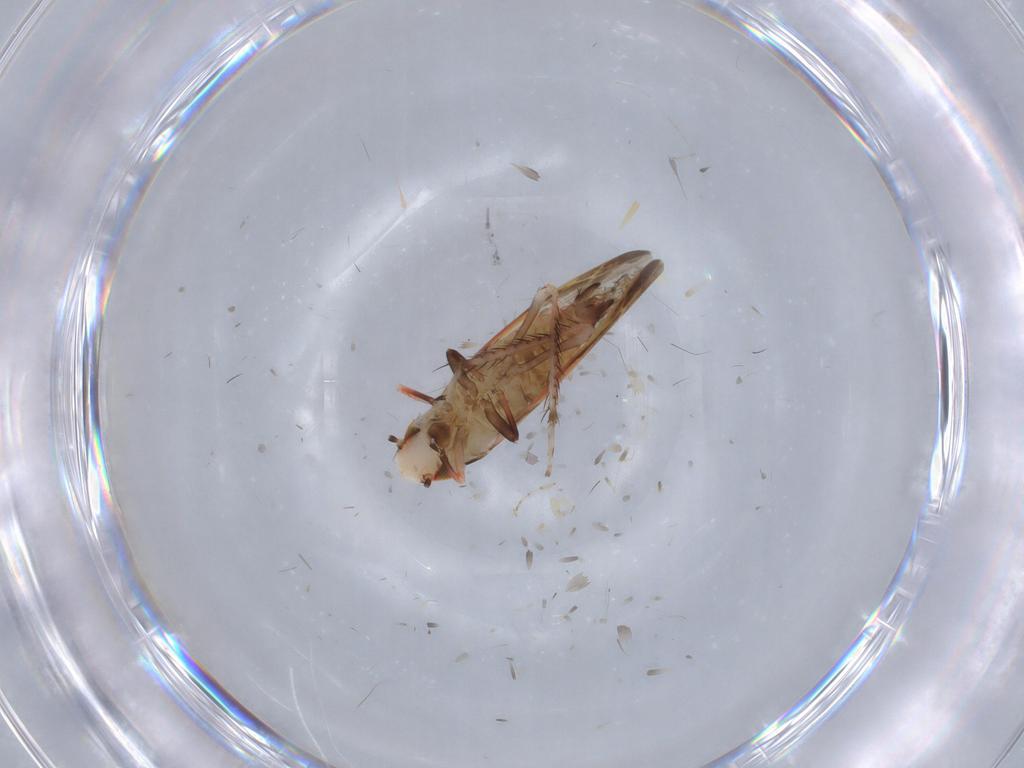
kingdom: Animalia
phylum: Arthropoda
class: Insecta
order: Hemiptera
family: Cicadellidae
